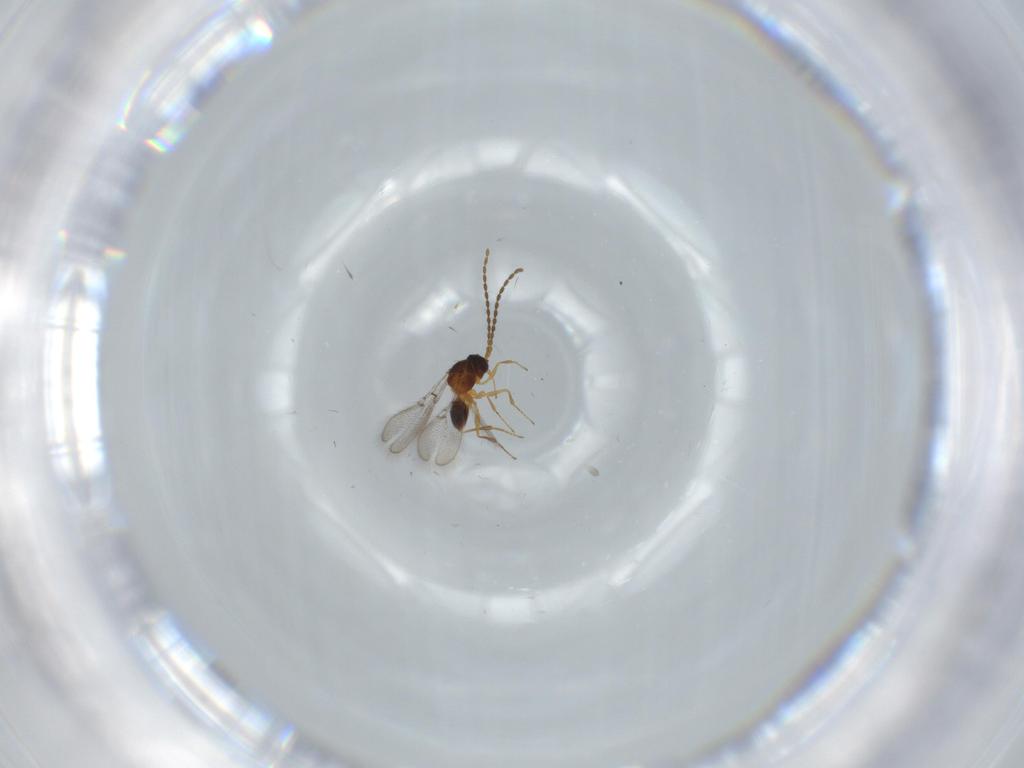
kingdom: Animalia
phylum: Arthropoda
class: Insecta
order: Hymenoptera
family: Figitidae
